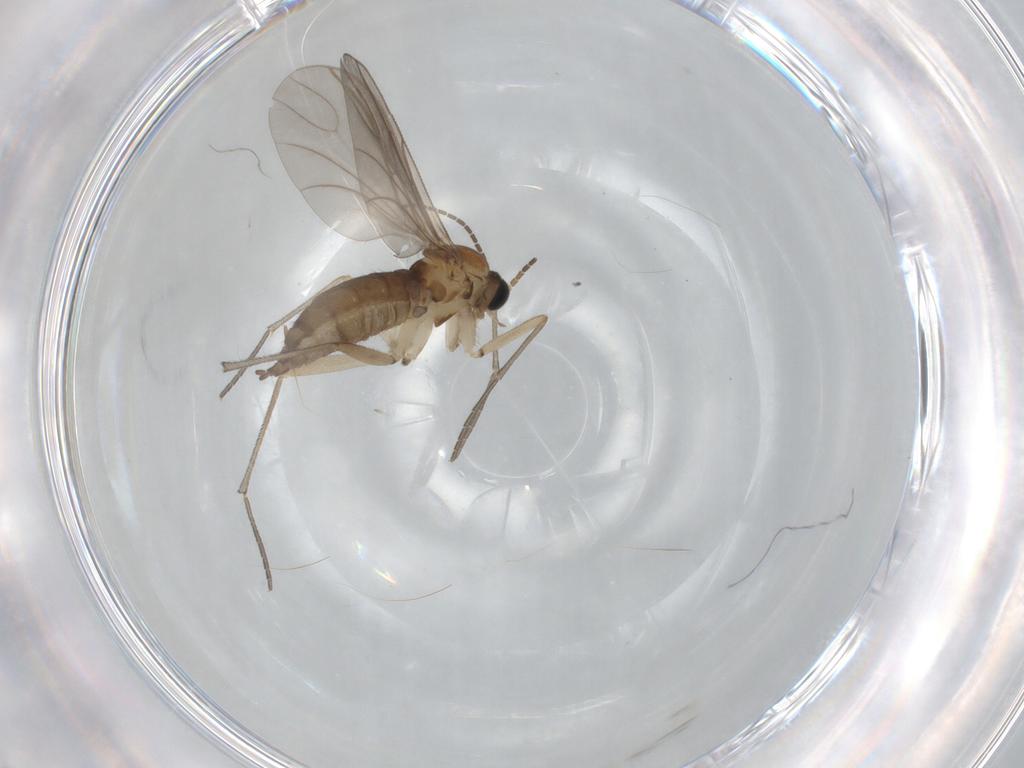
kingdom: Animalia
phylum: Arthropoda
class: Insecta
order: Diptera
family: Sciaridae
